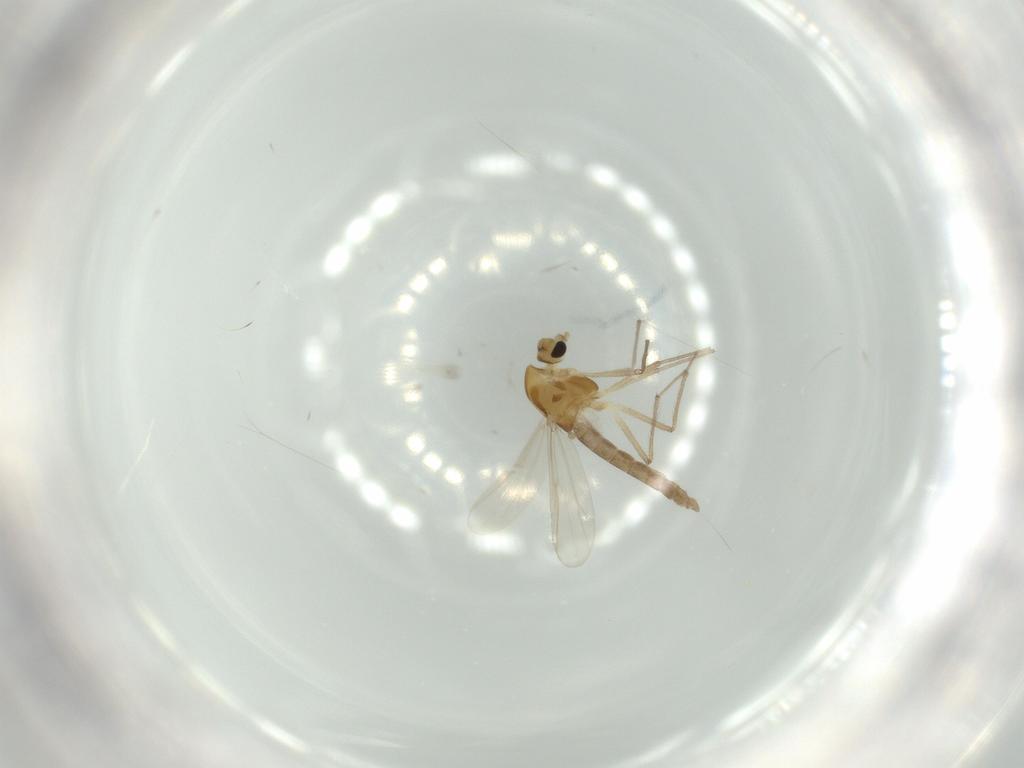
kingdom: Animalia
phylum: Arthropoda
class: Insecta
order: Diptera
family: Chironomidae
